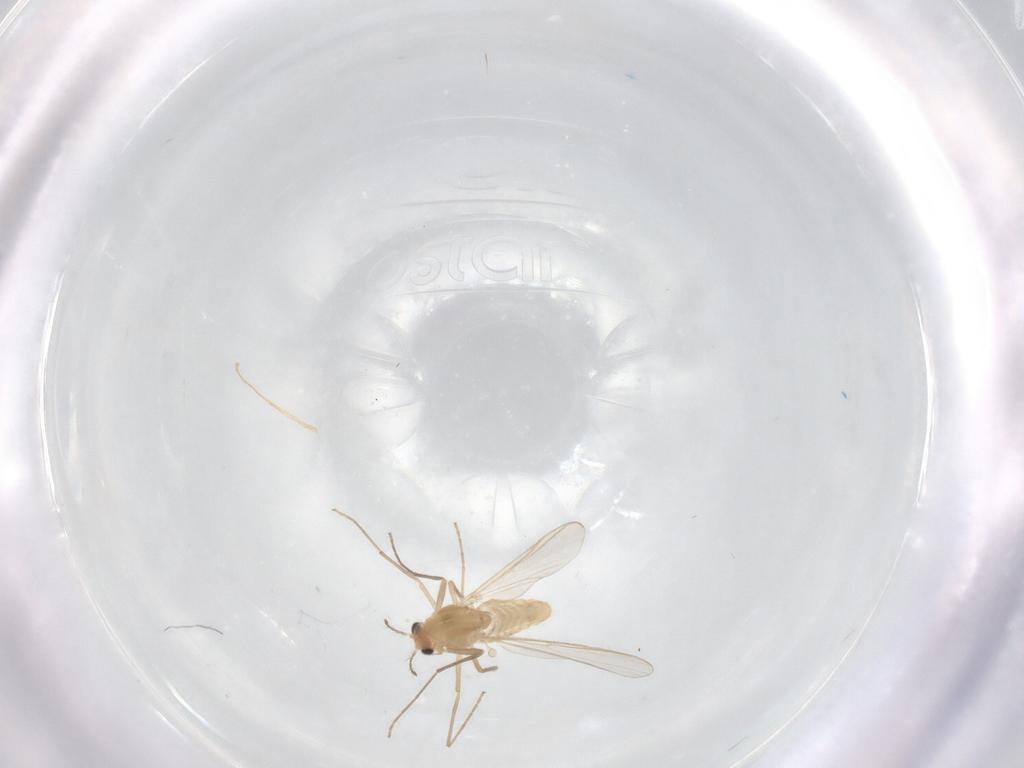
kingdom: Animalia
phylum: Arthropoda
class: Insecta
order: Diptera
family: Chironomidae
